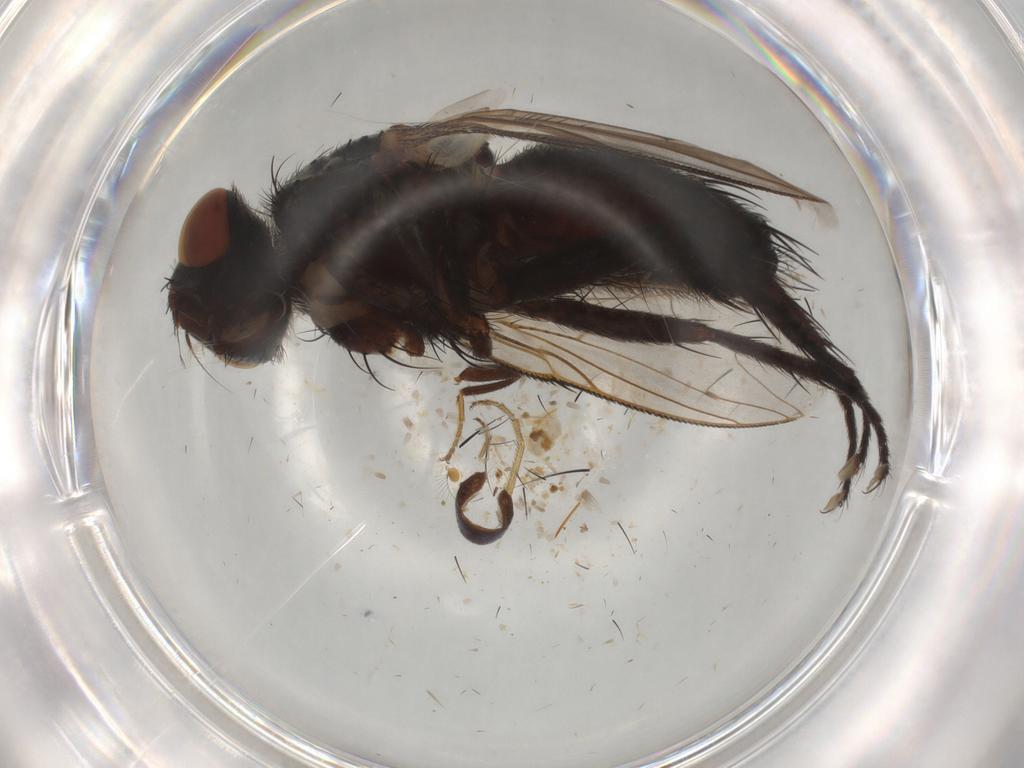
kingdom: Animalia
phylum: Arthropoda
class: Insecta
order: Diptera
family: Sarcophagidae
